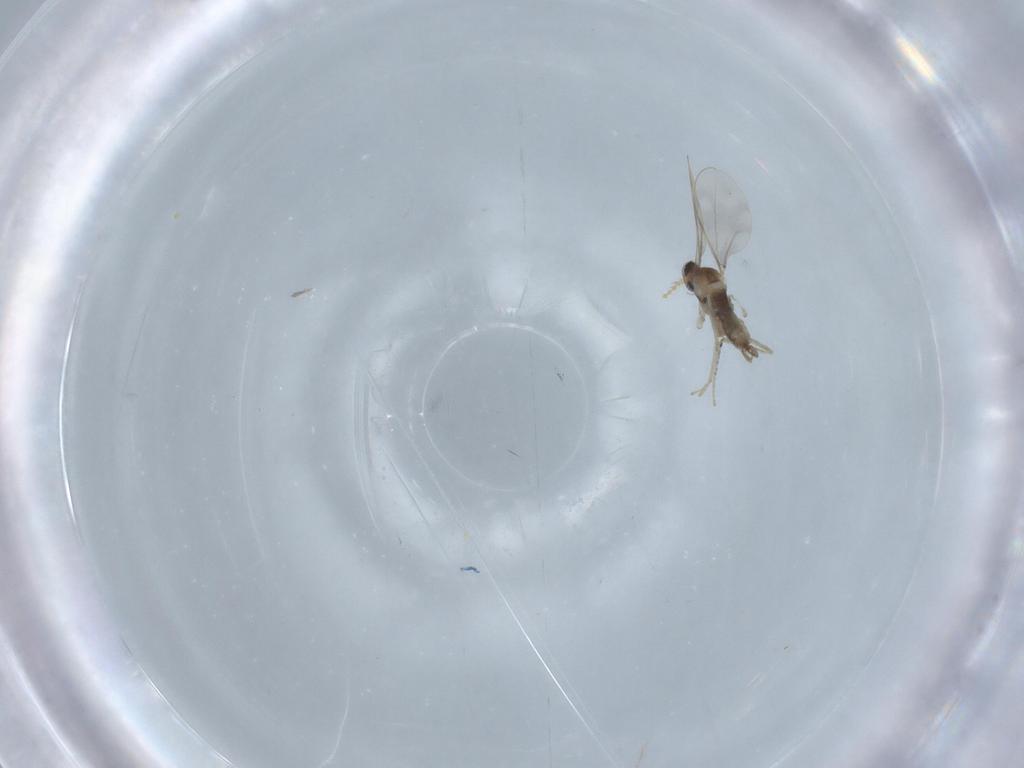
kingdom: Animalia
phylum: Arthropoda
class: Insecta
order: Diptera
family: Cecidomyiidae
